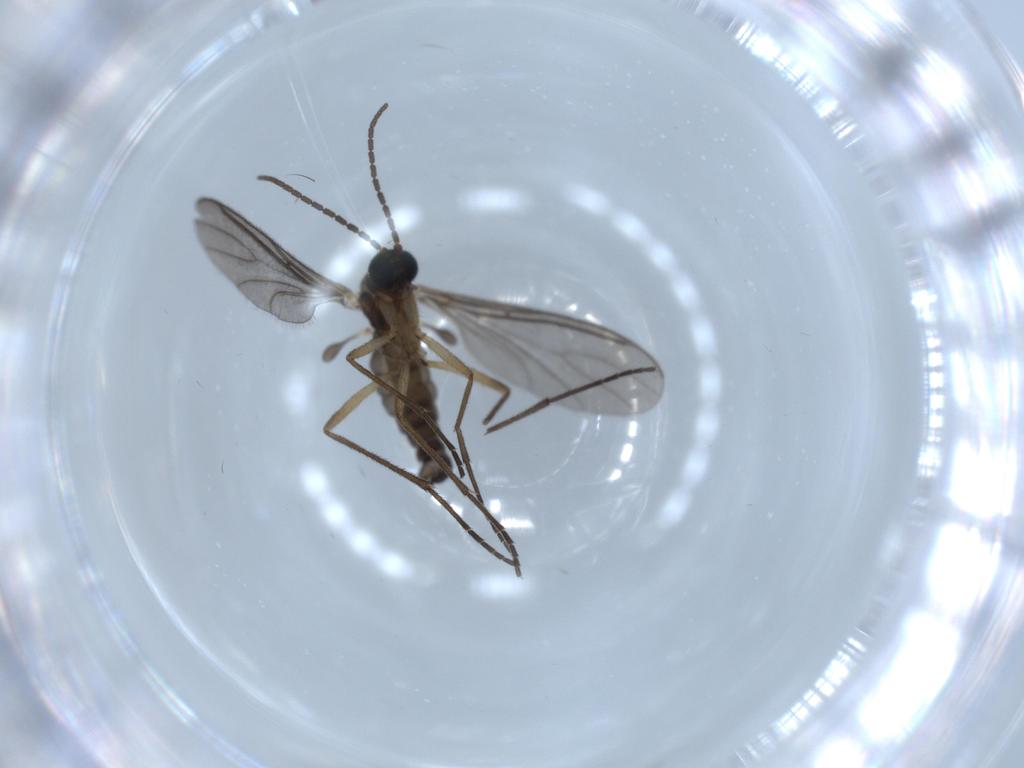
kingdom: Animalia
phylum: Arthropoda
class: Insecta
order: Diptera
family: Sciaridae
